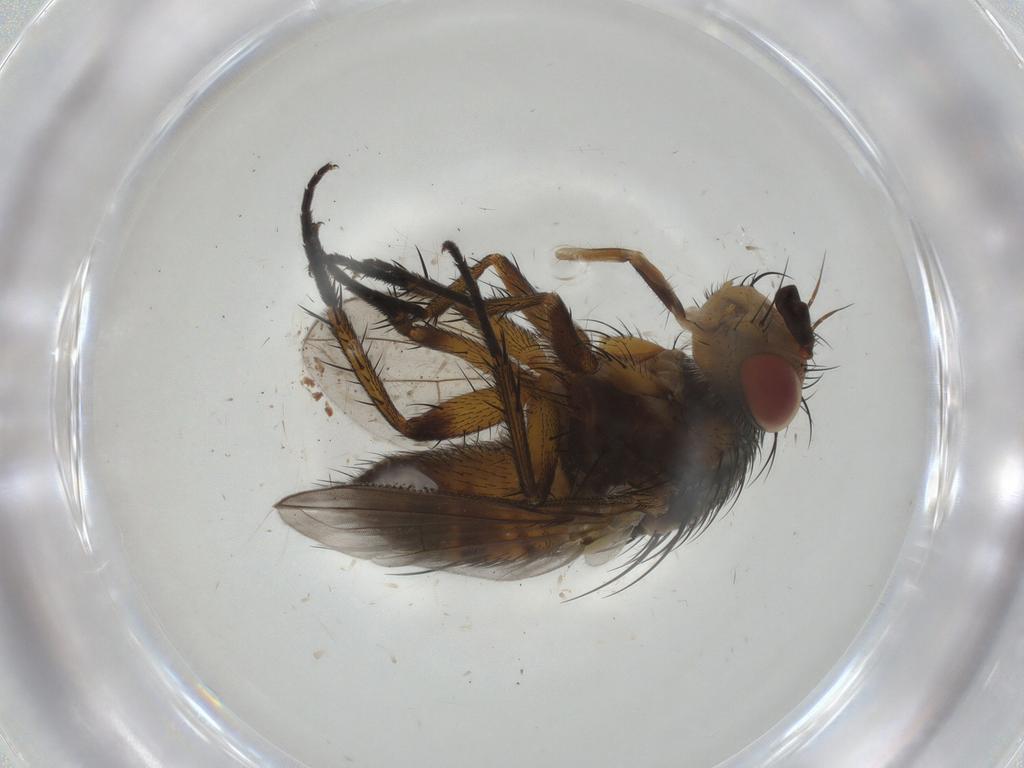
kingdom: Animalia
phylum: Arthropoda
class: Insecta
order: Diptera
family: Tachinidae
